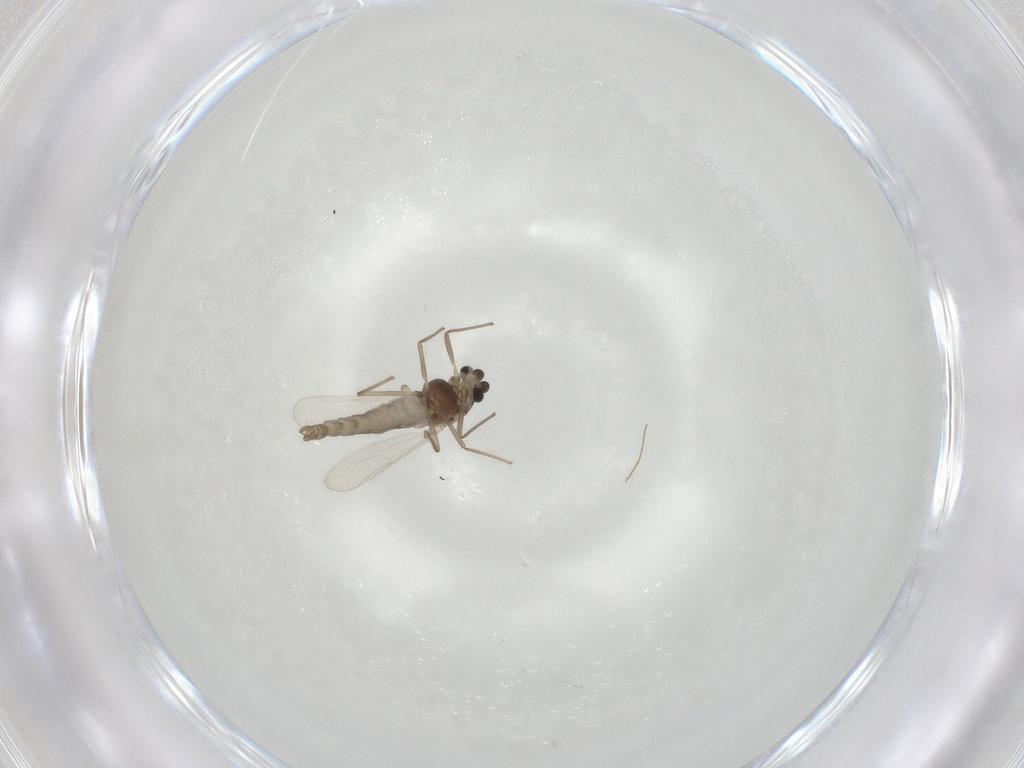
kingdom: Animalia
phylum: Arthropoda
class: Insecta
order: Diptera
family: Chironomidae
